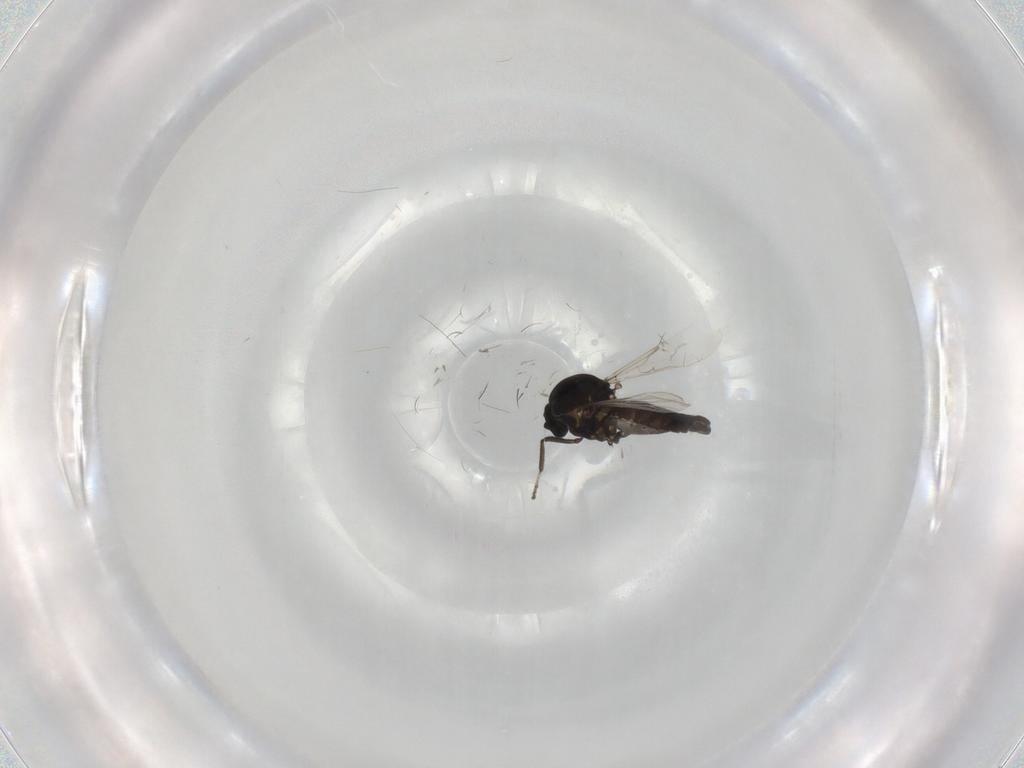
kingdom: Animalia
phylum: Arthropoda
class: Insecta
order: Diptera
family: Ceratopogonidae
